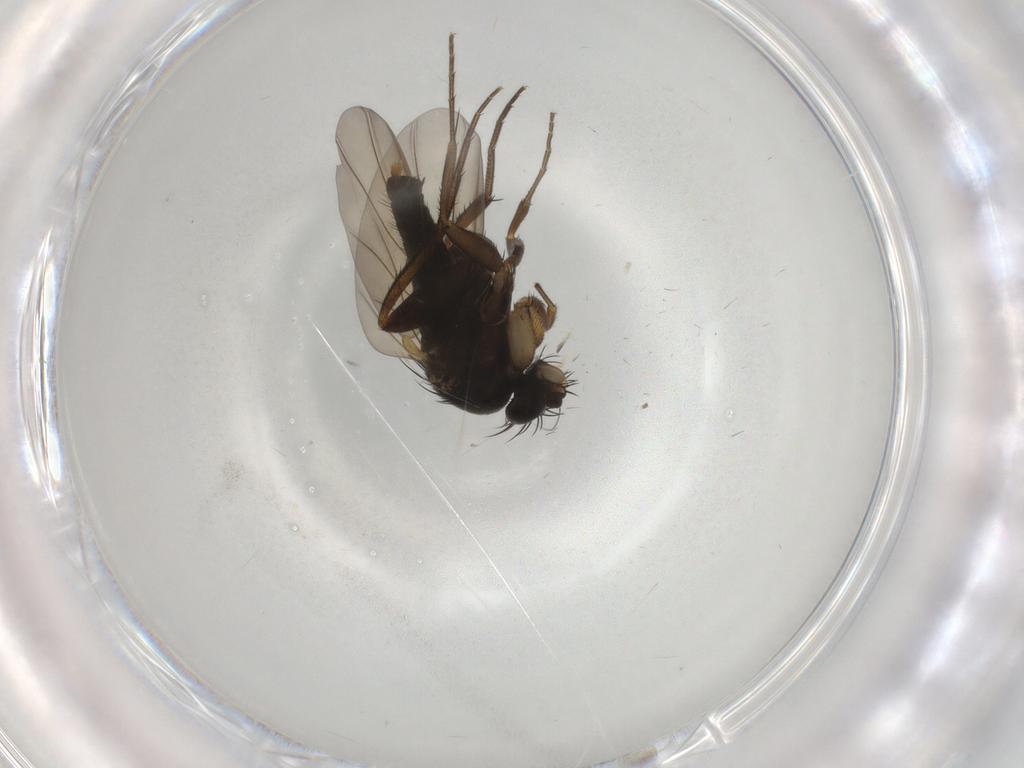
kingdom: Animalia
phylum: Arthropoda
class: Insecta
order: Diptera
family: Phoridae
